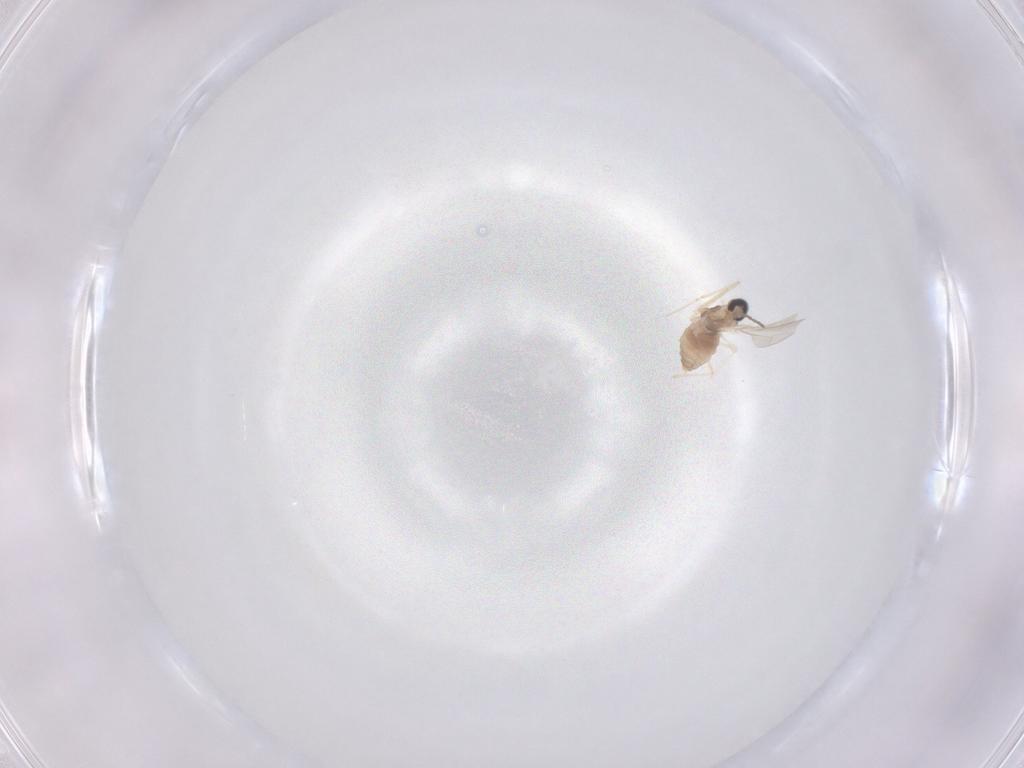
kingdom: Animalia
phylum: Arthropoda
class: Insecta
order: Diptera
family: Cecidomyiidae
